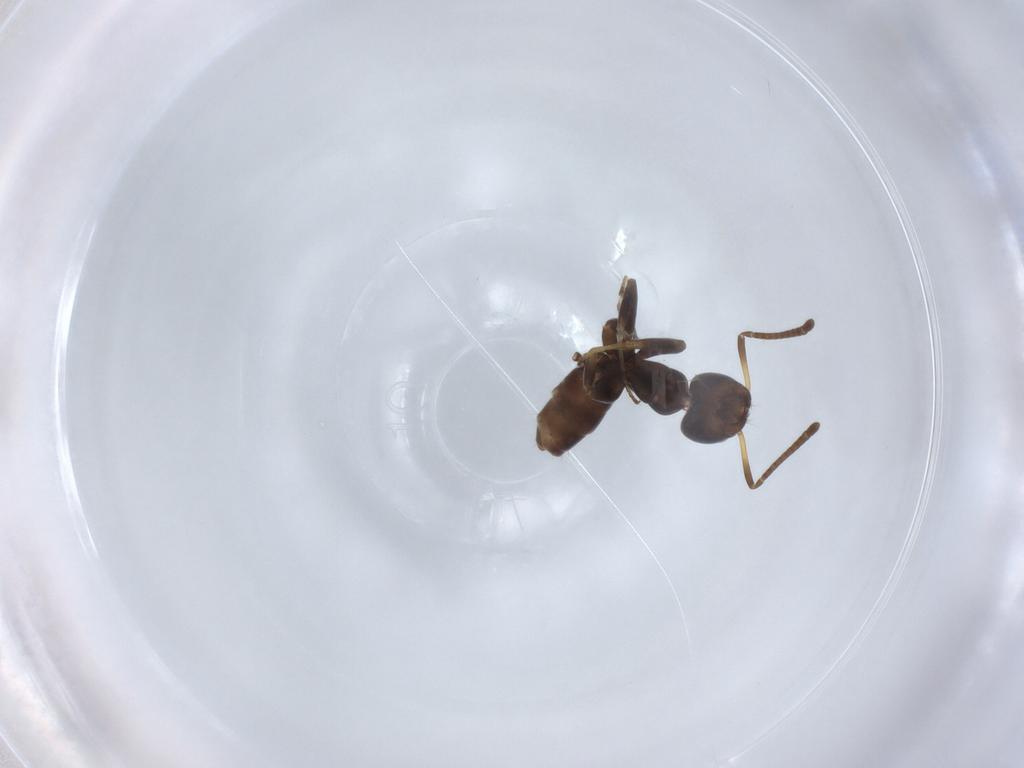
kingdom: Animalia
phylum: Arthropoda
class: Insecta
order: Hymenoptera
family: Formicidae
